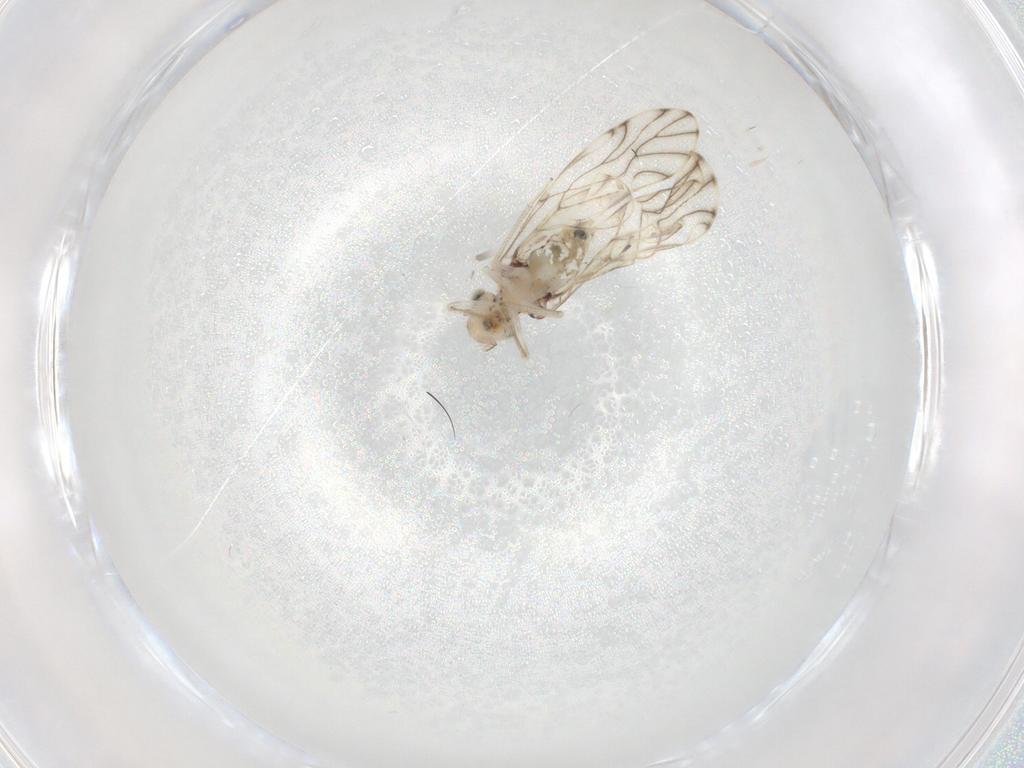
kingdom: Animalia
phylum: Arthropoda
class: Insecta
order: Psocodea
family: Philotarsidae
